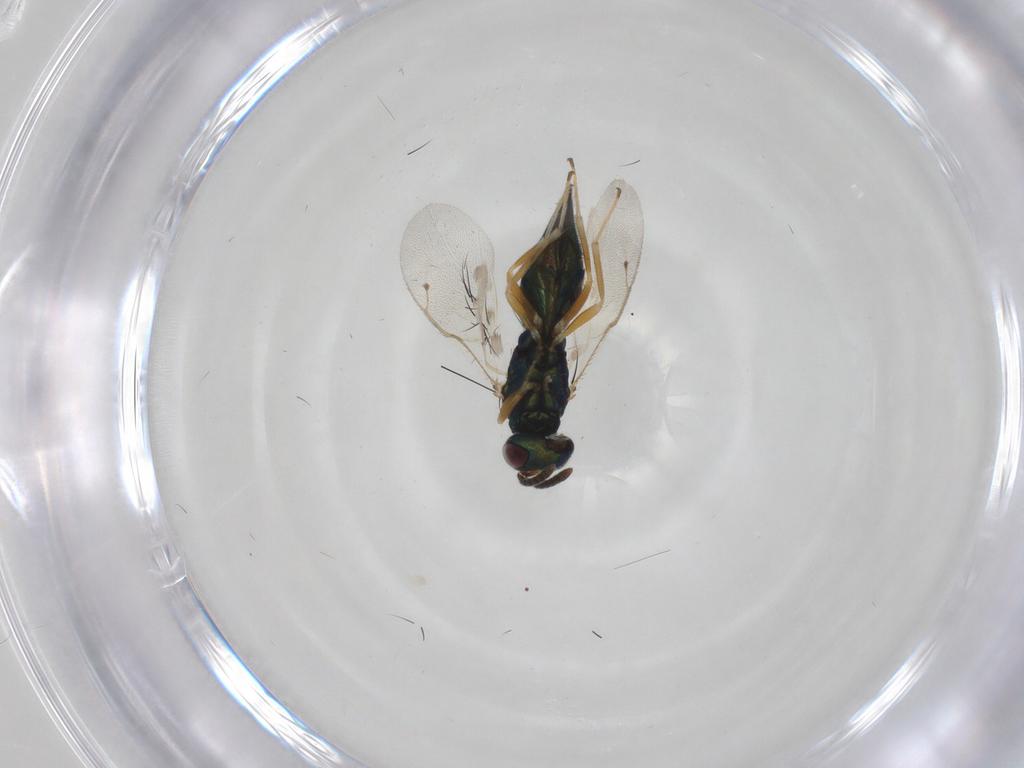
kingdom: Animalia
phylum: Arthropoda
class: Insecta
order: Hymenoptera
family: Pteromalidae
